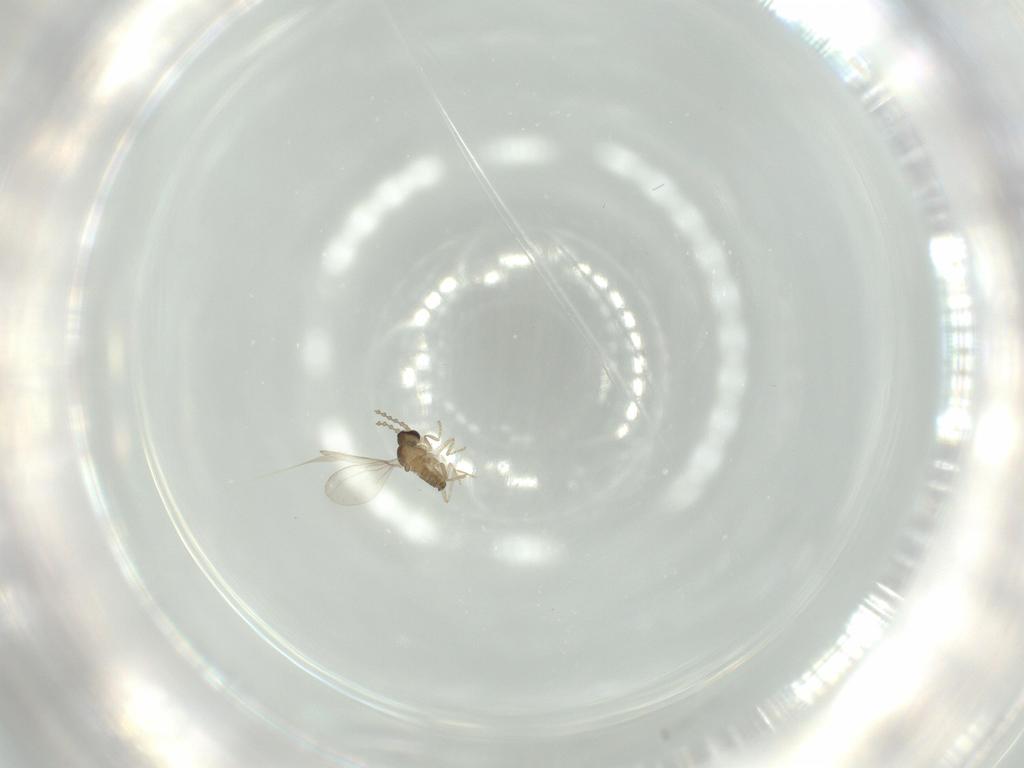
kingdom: Animalia
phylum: Arthropoda
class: Insecta
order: Diptera
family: Cecidomyiidae
